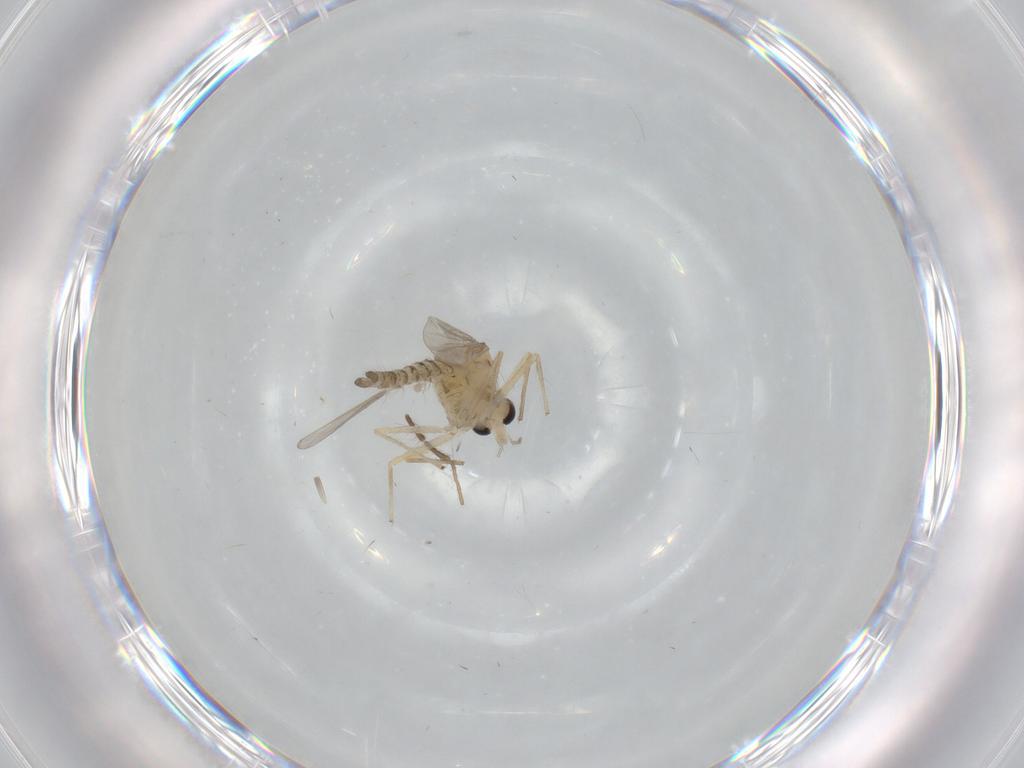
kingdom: Animalia
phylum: Arthropoda
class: Insecta
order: Diptera
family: Chironomidae
